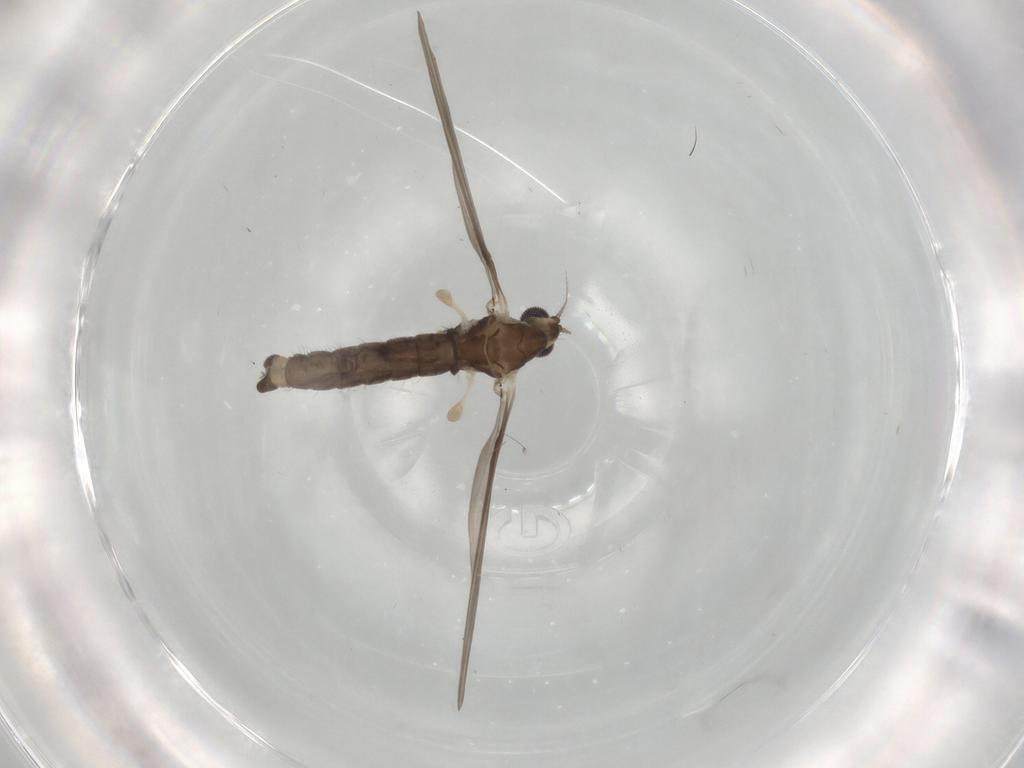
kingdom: Animalia
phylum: Arthropoda
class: Insecta
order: Diptera
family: Limoniidae
